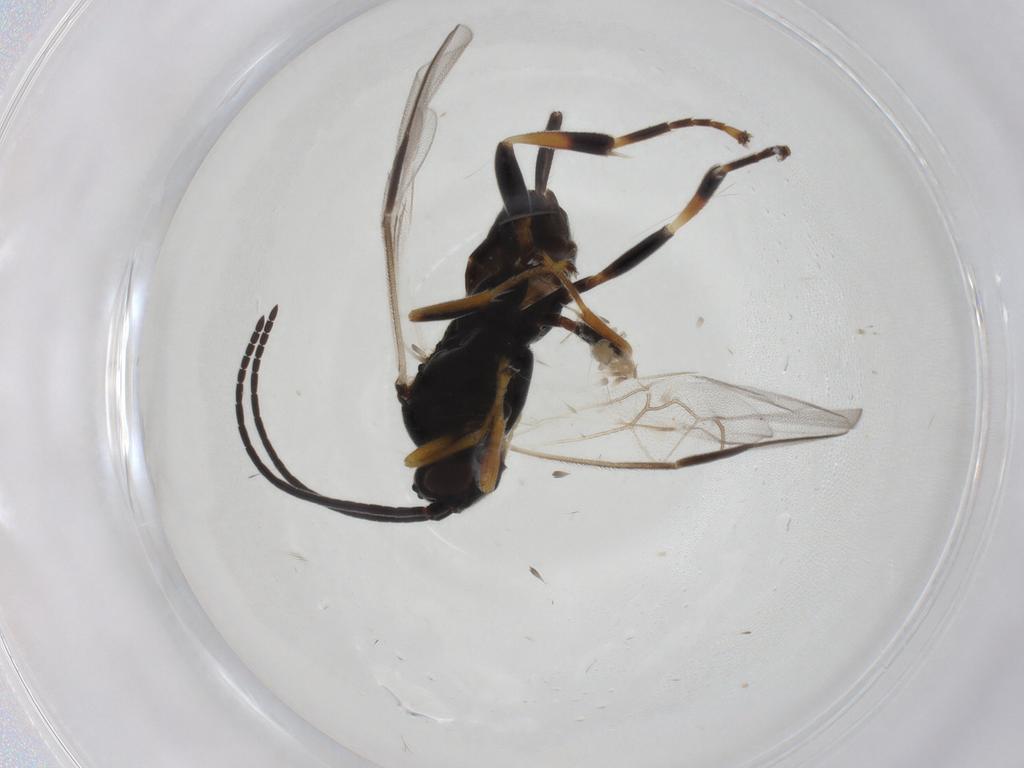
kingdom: Animalia
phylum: Arthropoda
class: Insecta
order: Hymenoptera
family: Braconidae
